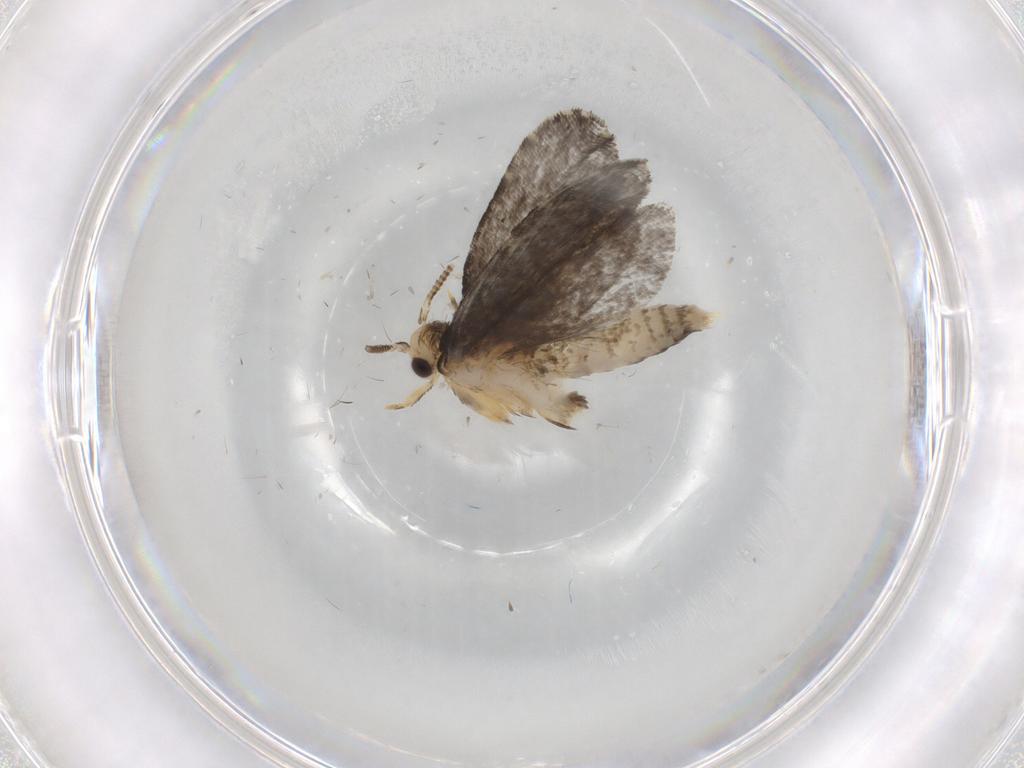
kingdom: Animalia
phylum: Arthropoda
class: Insecta
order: Lepidoptera
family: Tineidae
